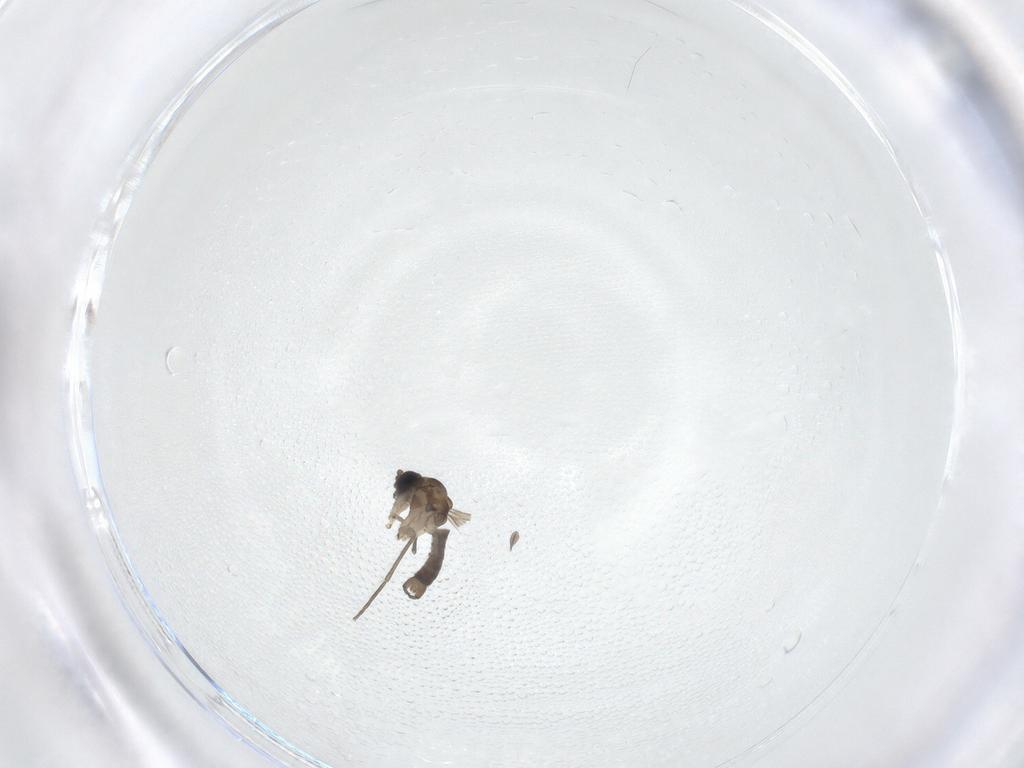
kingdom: Animalia
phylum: Arthropoda
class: Insecta
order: Diptera
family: Sciaridae
